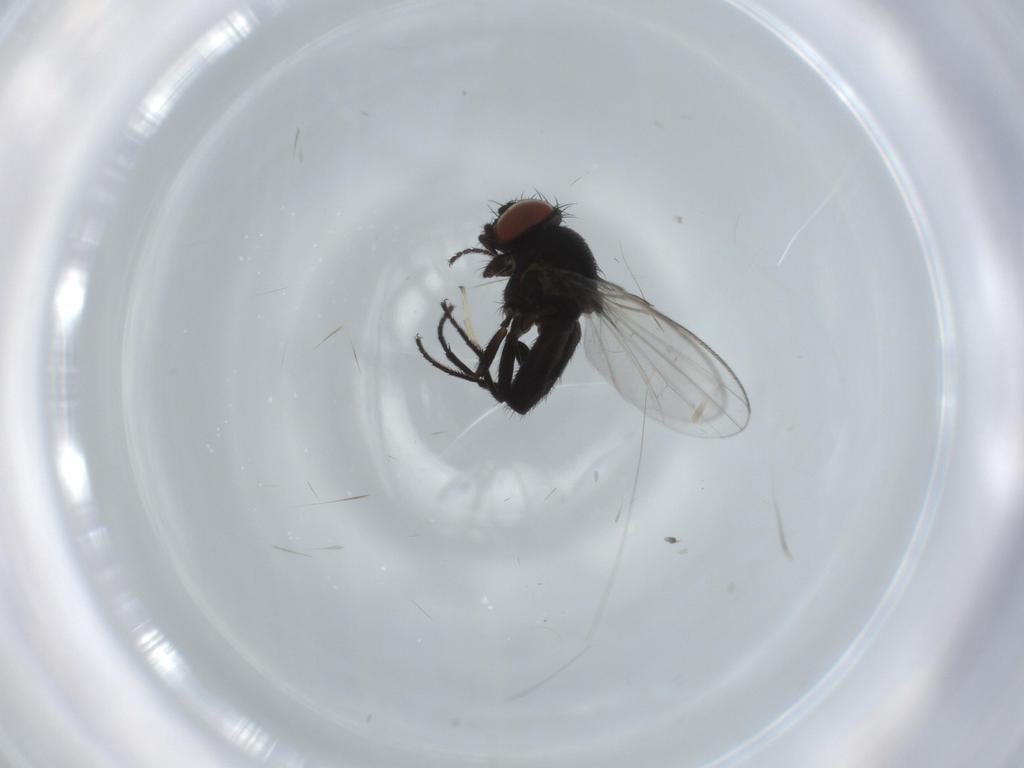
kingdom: Animalia
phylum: Arthropoda
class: Insecta
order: Diptera
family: Milichiidae
